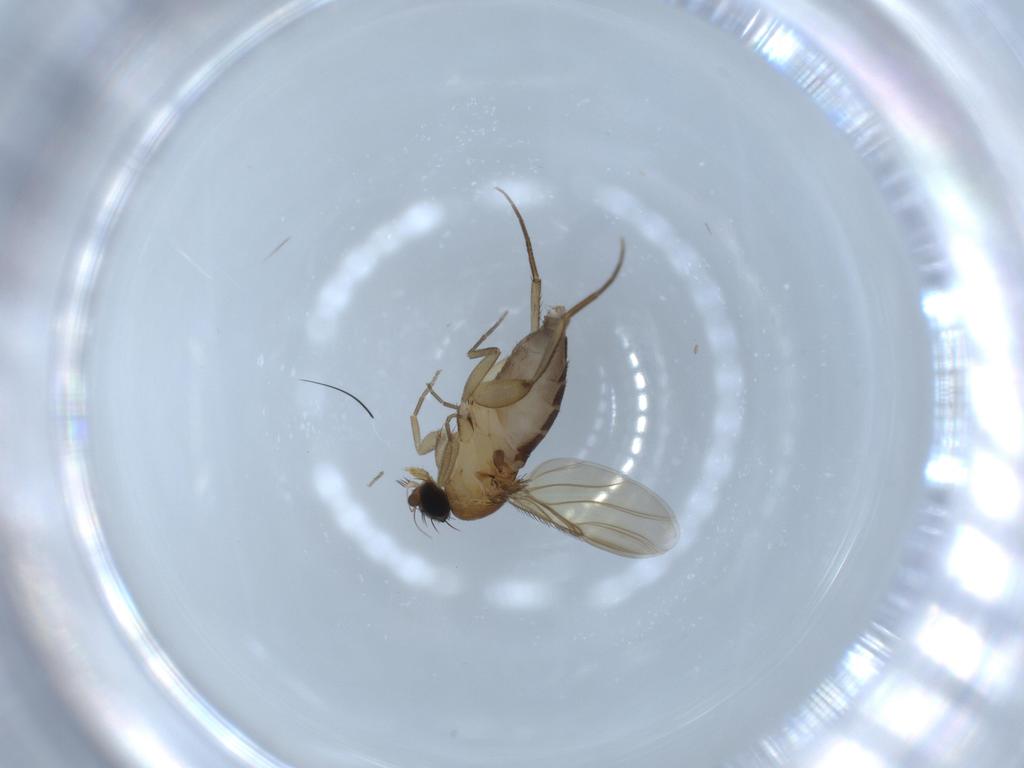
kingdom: Animalia
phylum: Arthropoda
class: Insecta
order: Diptera
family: Phoridae
